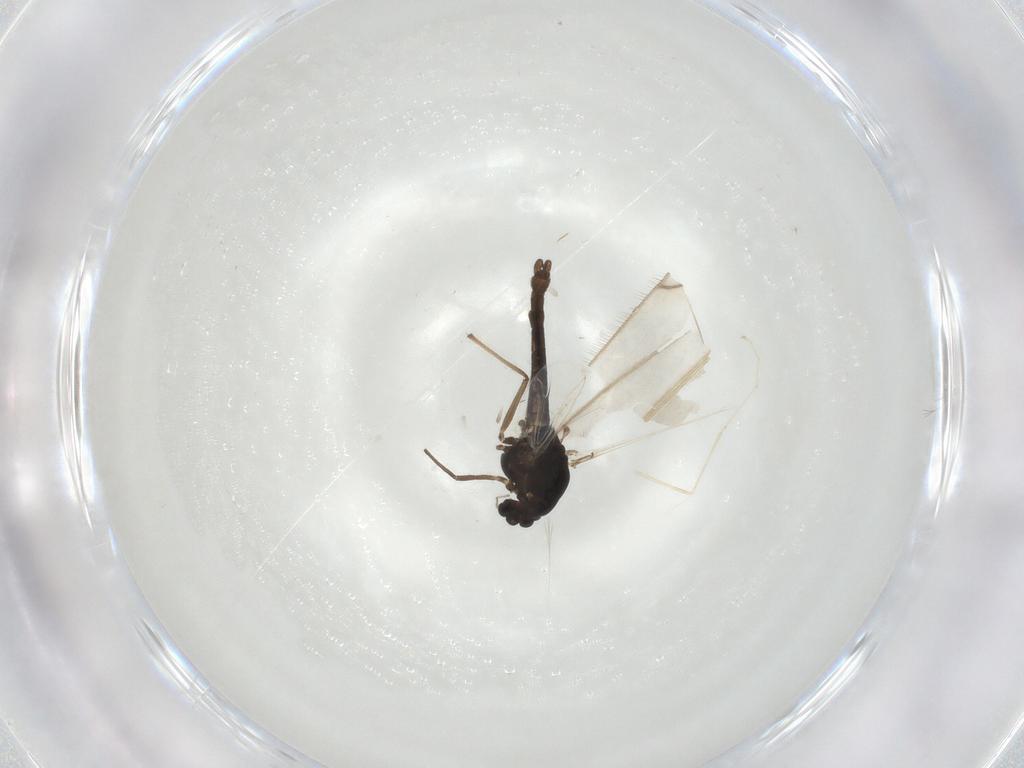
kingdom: Animalia
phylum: Arthropoda
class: Insecta
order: Diptera
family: Chironomidae
